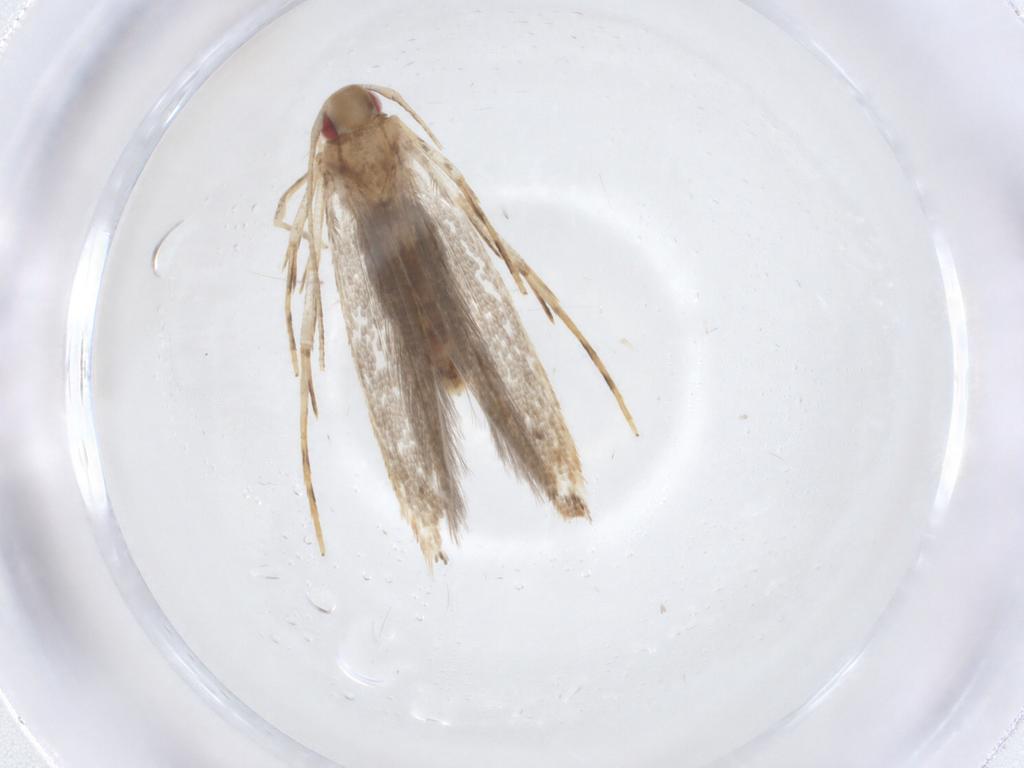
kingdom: Animalia
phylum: Arthropoda
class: Insecta
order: Lepidoptera
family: Cosmopterigidae
